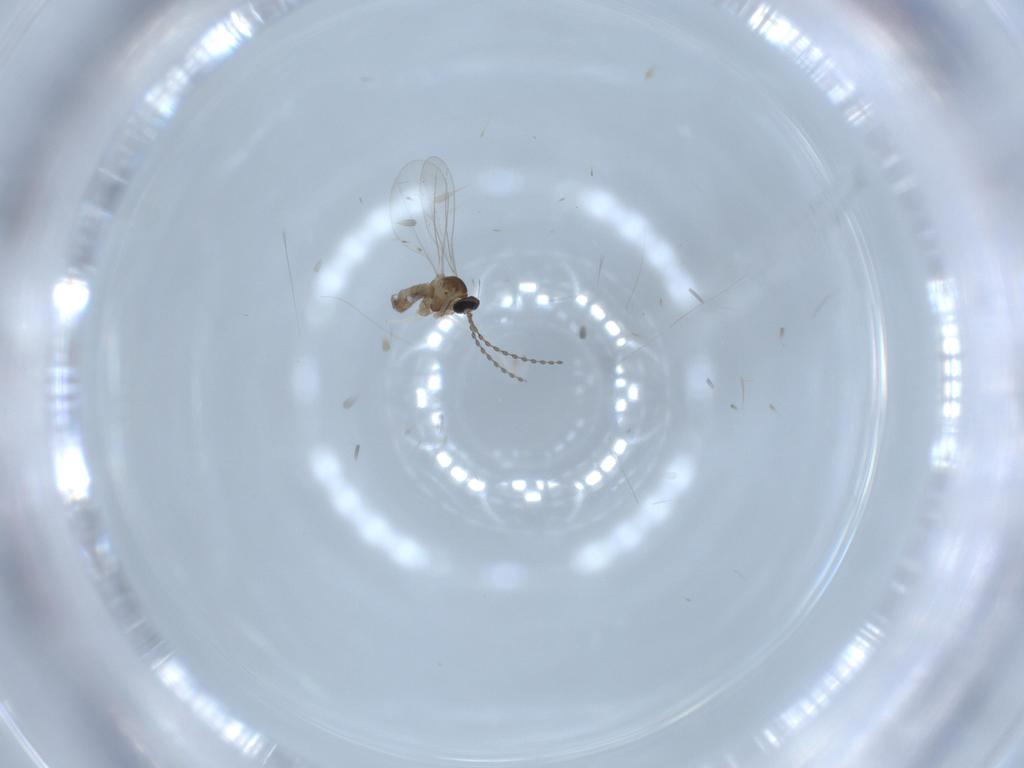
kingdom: Animalia
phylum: Arthropoda
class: Insecta
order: Diptera
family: Cecidomyiidae
